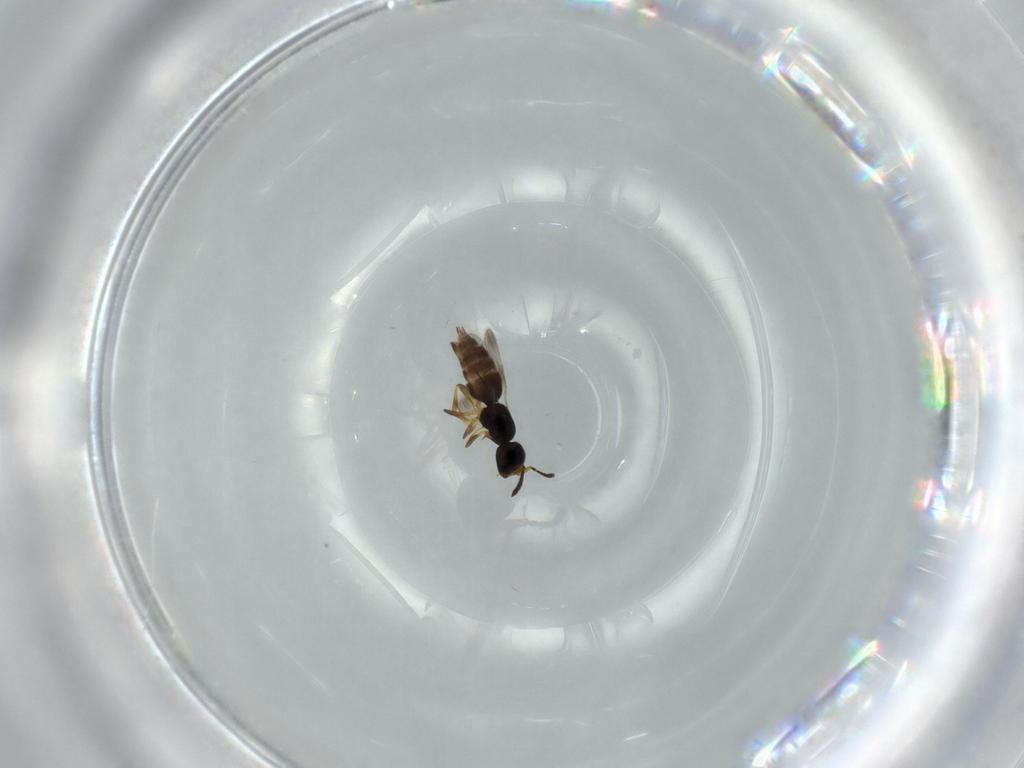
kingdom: Animalia
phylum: Arthropoda
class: Insecta
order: Hymenoptera
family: Ceraphronidae
